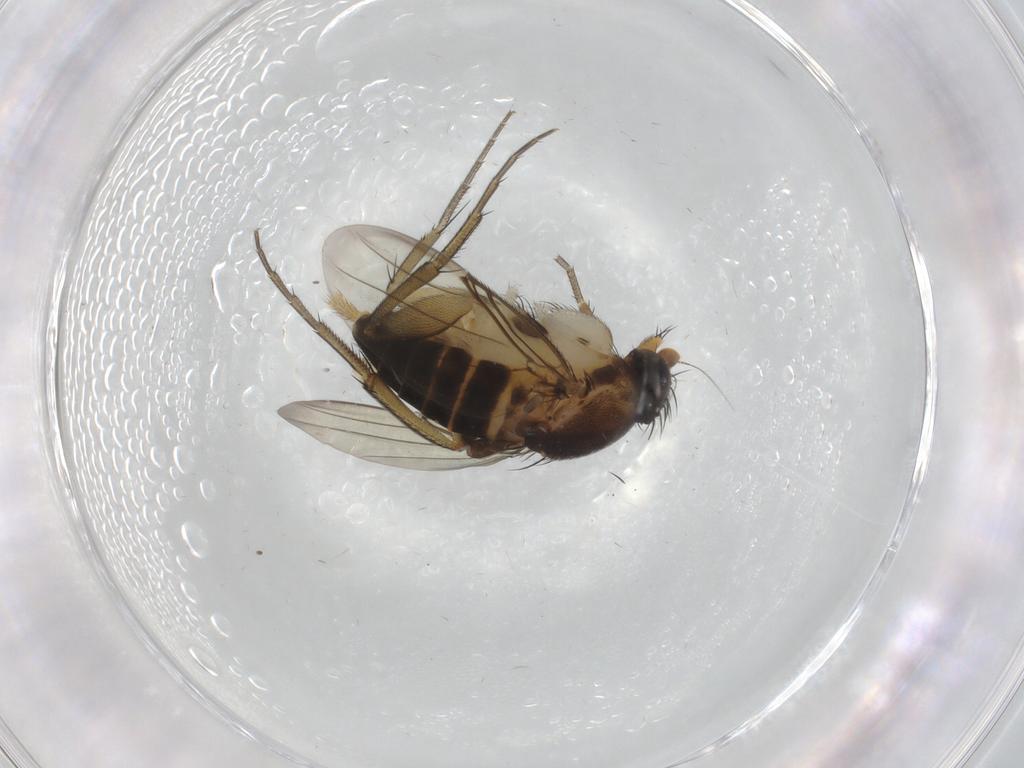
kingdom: Animalia
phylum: Arthropoda
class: Insecta
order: Diptera
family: Phoridae
